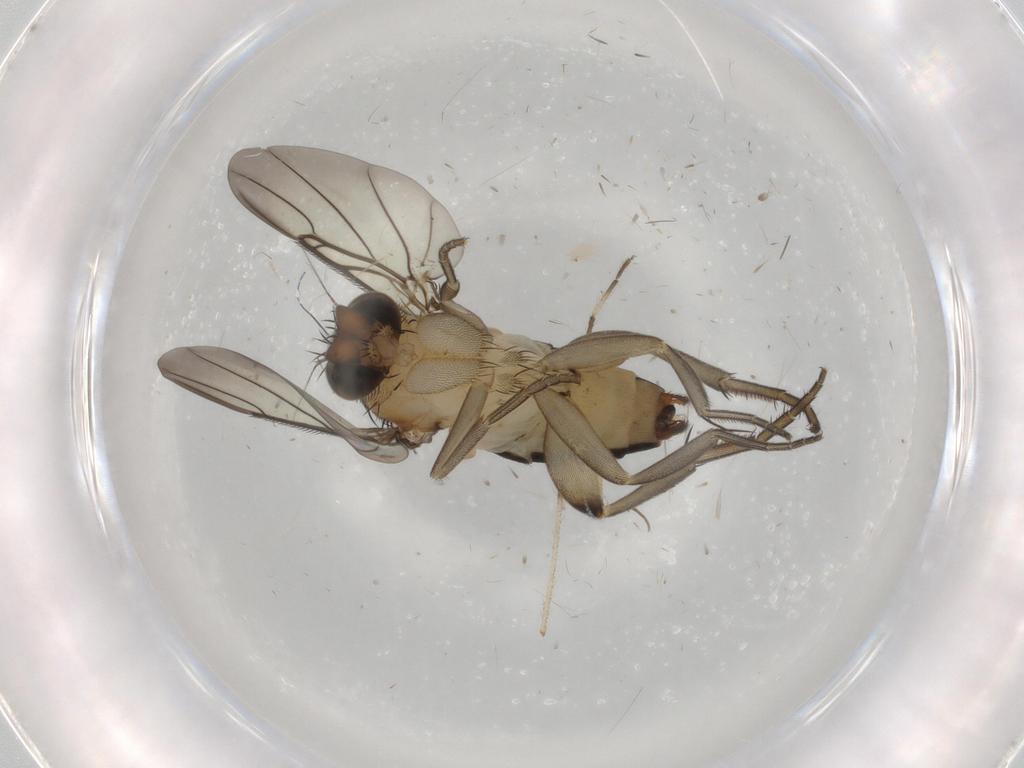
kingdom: Animalia
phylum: Arthropoda
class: Insecta
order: Diptera
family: Phoridae
